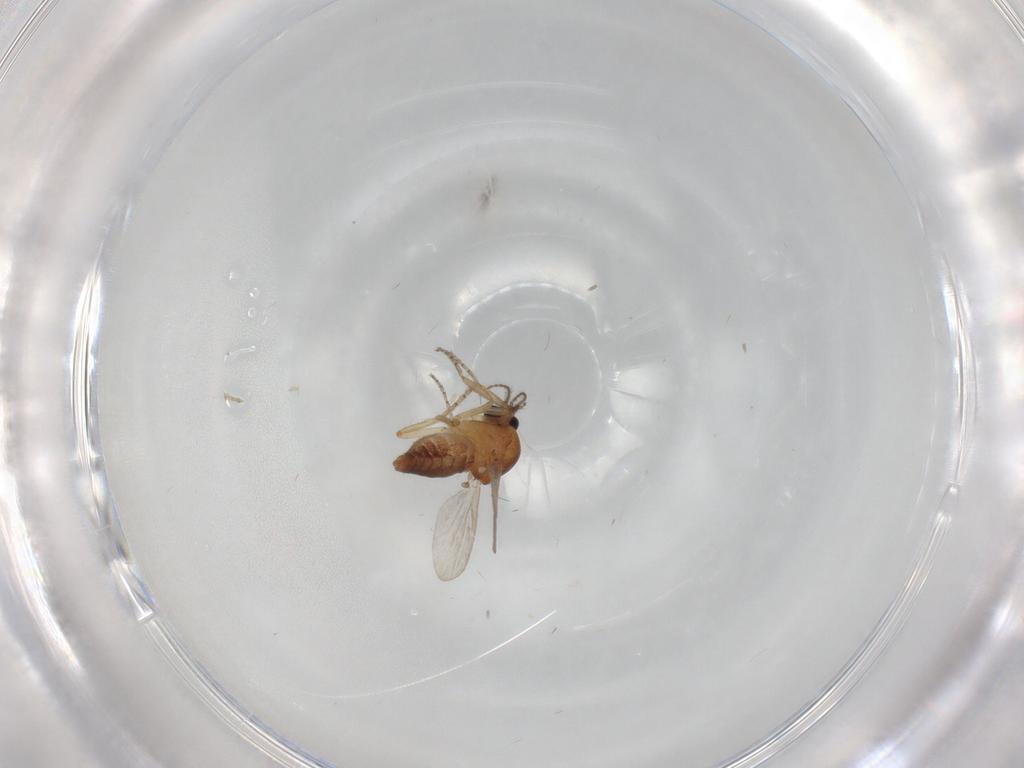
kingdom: Animalia
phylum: Arthropoda
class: Insecta
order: Diptera
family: Ceratopogonidae
